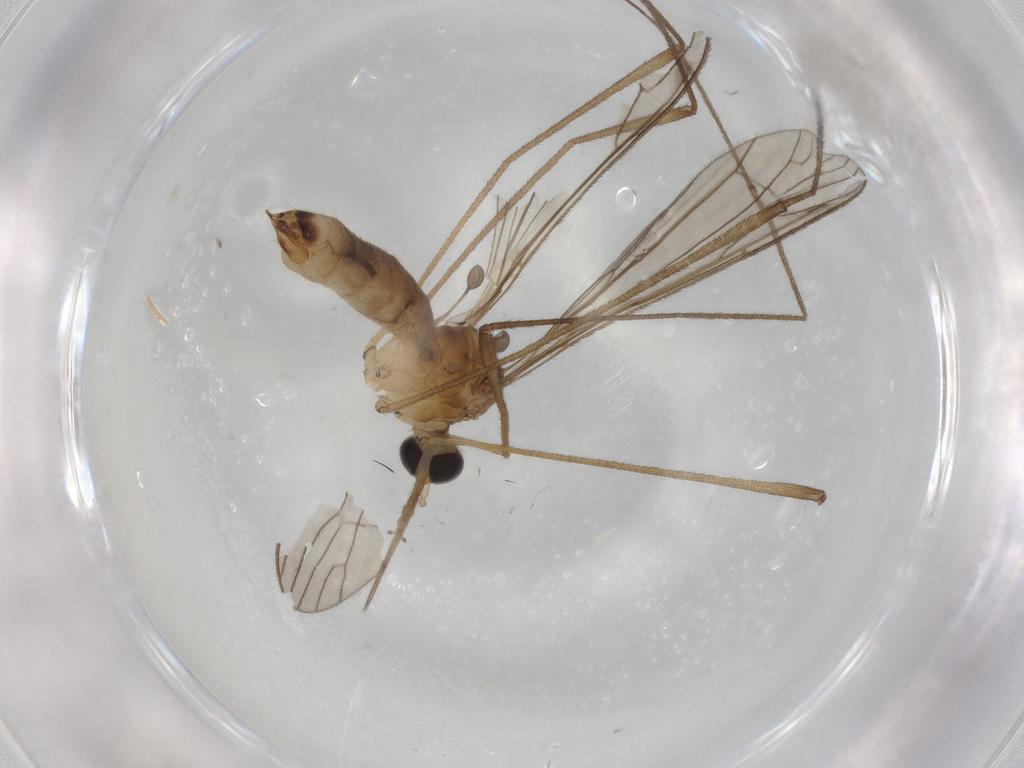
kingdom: Animalia
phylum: Arthropoda
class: Insecta
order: Diptera
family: Limoniidae
